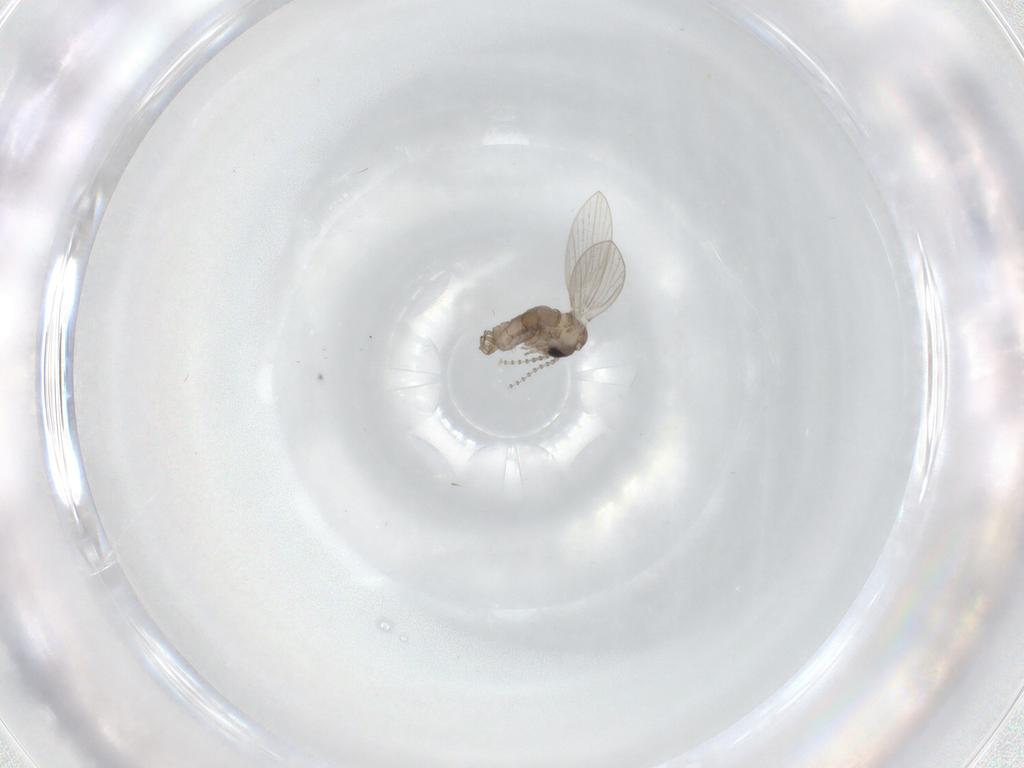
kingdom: Animalia
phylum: Arthropoda
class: Insecta
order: Diptera
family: Psychodidae
